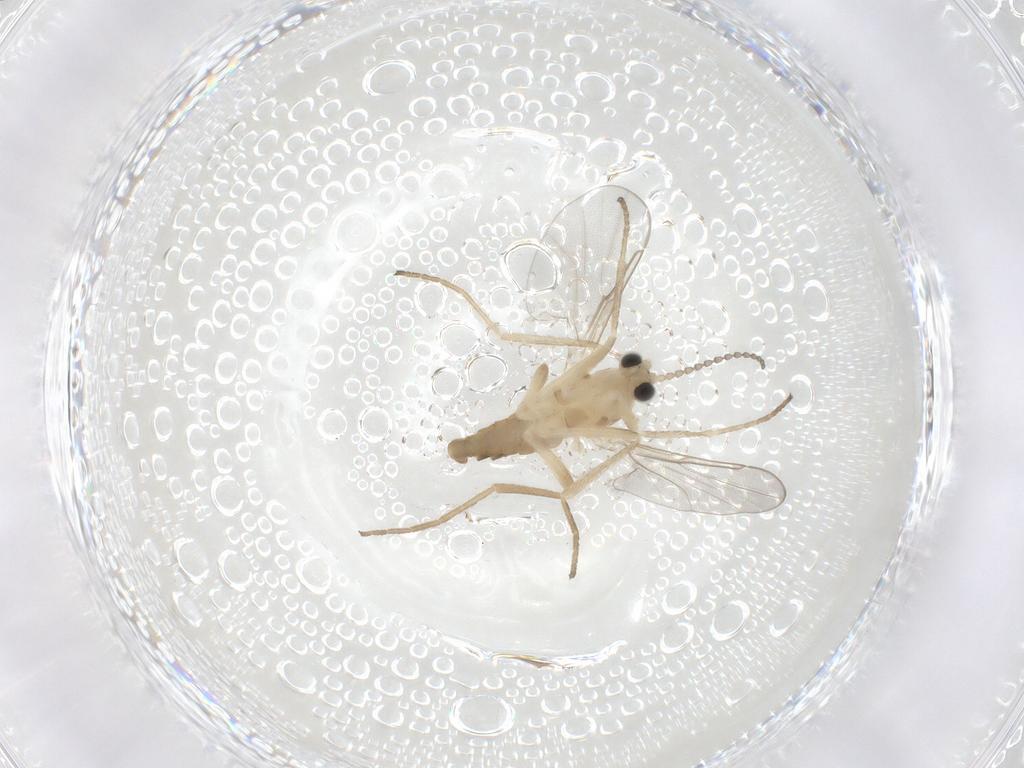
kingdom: Animalia
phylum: Arthropoda
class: Insecta
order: Diptera
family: Cecidomyiidae
